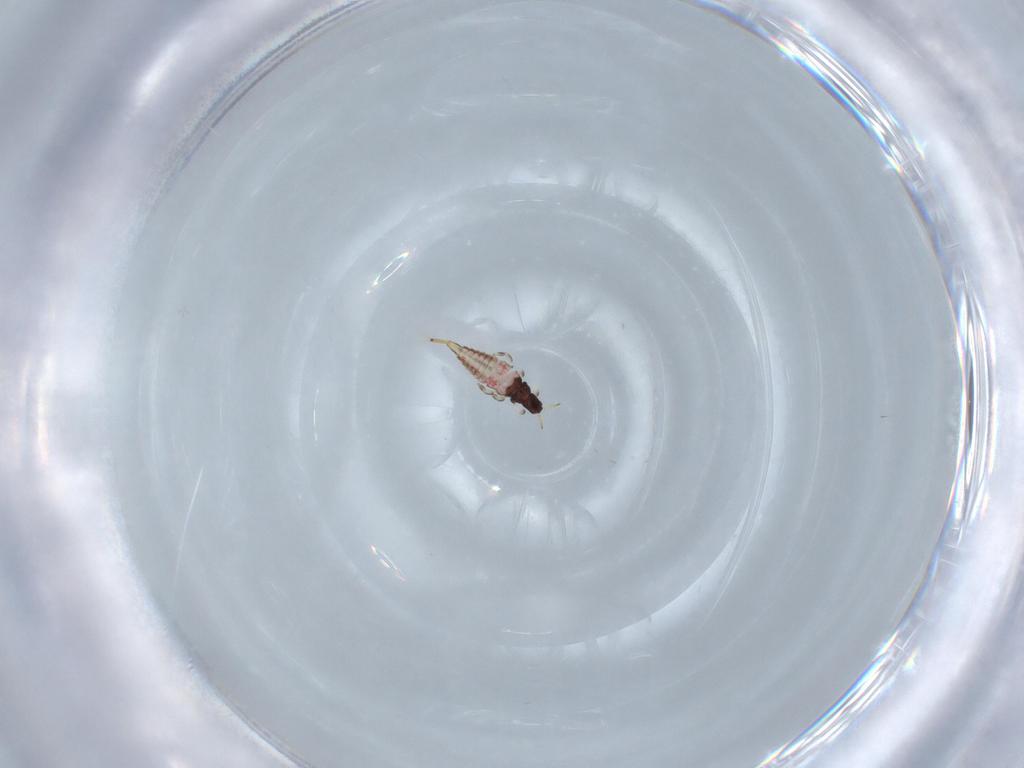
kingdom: Animalia
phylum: Arthropoda
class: Insecta
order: Thysanoptera
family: Phlaeothripidae
